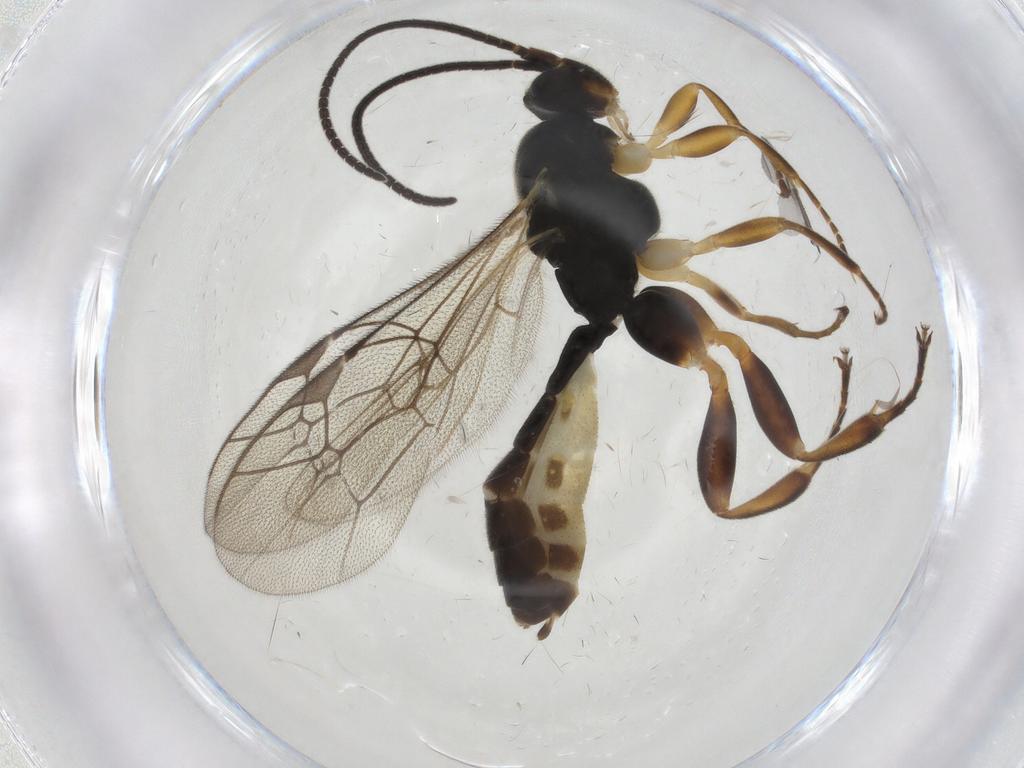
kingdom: Animalia
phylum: Arthropoda
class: Insecta
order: Hymenoptera
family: Ichneumonidae
